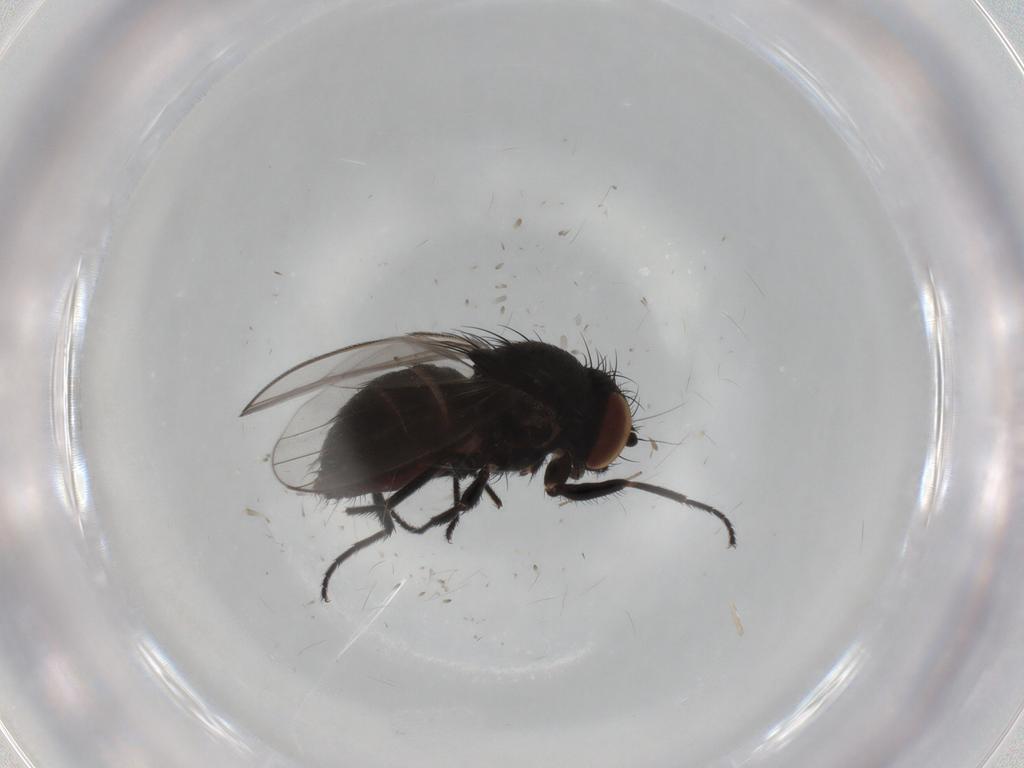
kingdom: Animalia
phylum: Arthropoda
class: Insecta
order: Diptera
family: Milichiidae
